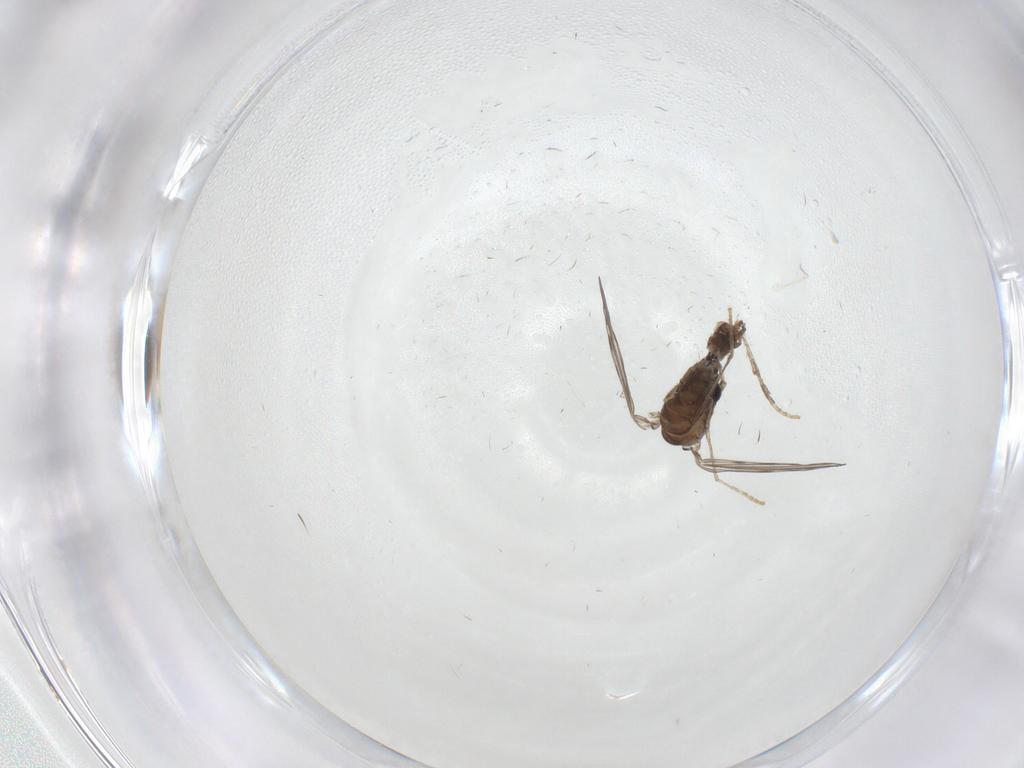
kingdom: Animalia
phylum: Arthropoda
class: Insecta
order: Diptera
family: Psychodidae
